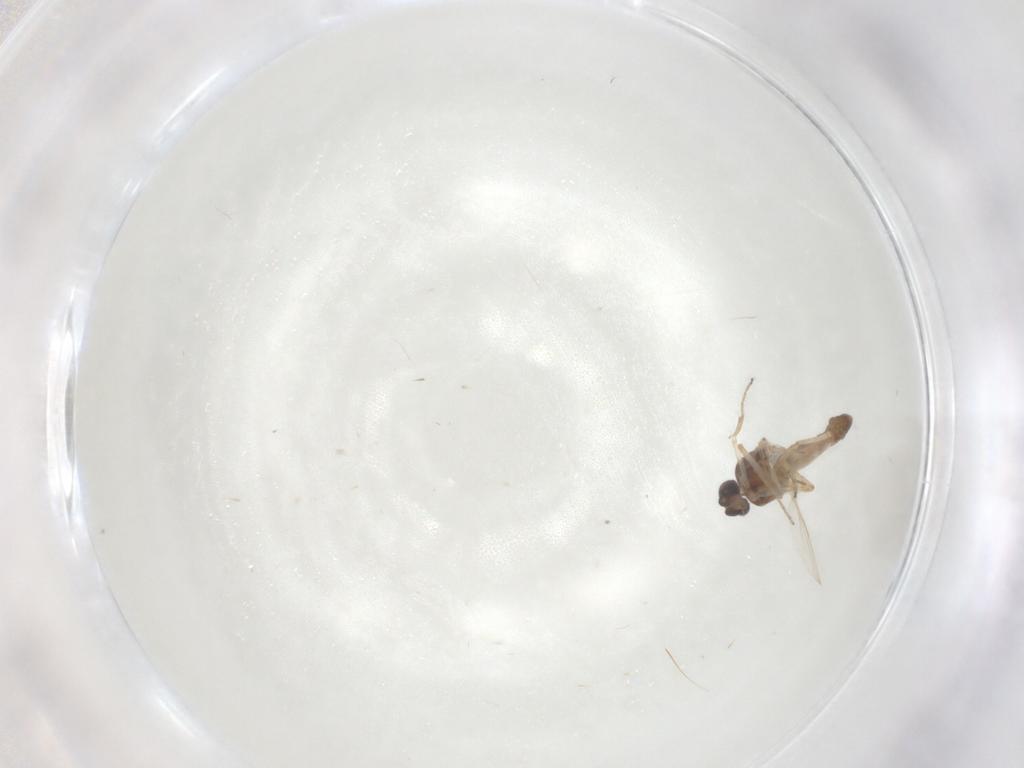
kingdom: Animalia
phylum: Arthropoda
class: Insecta
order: Diptera
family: Ceratopogonidae
